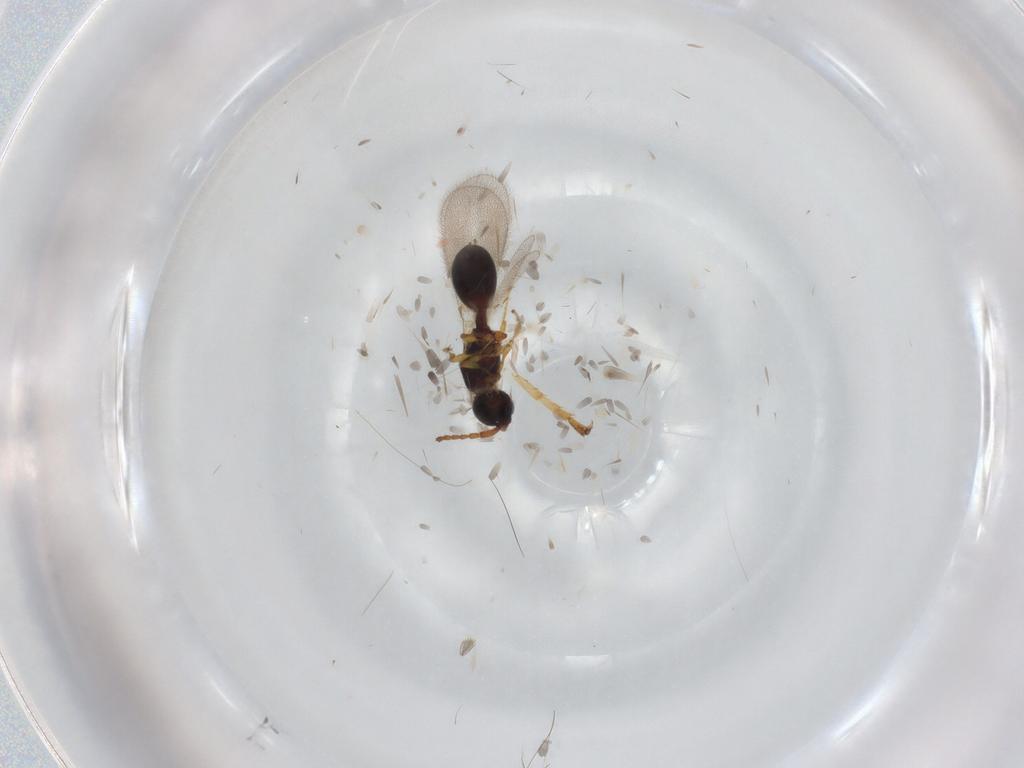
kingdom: Animalia
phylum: Arthropoda
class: Insecta
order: Hymenoptera
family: Diapriidae
